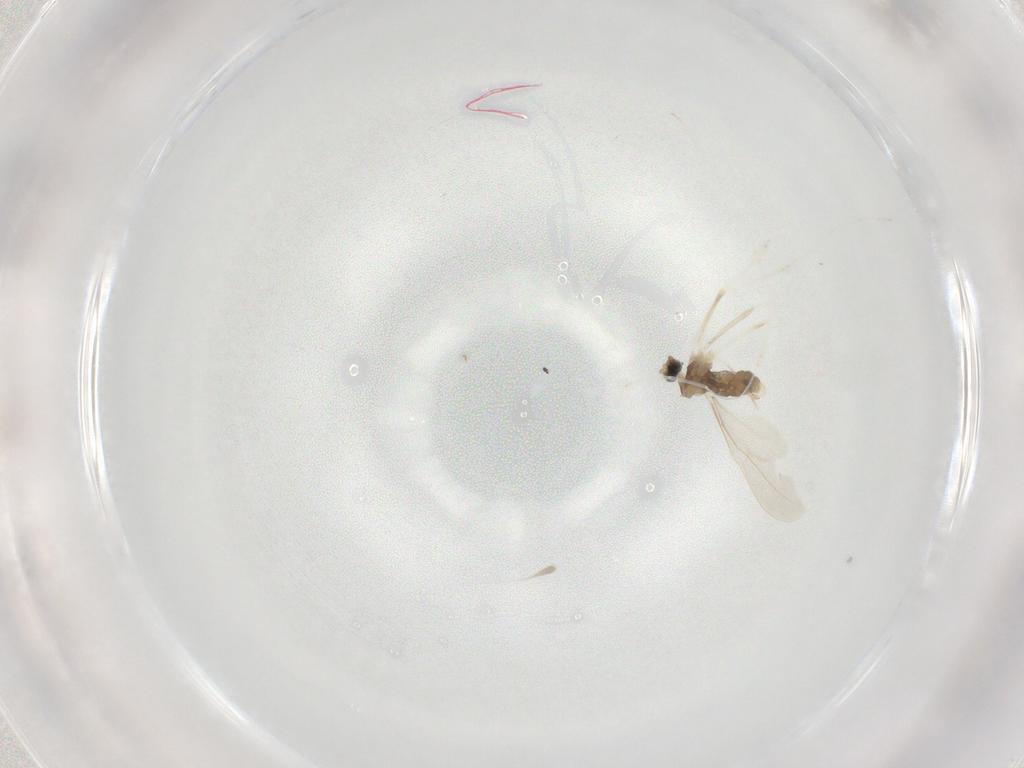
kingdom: Animalia
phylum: Arthropoda
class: Insecta
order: Diptera
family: Cecidomyiidae
